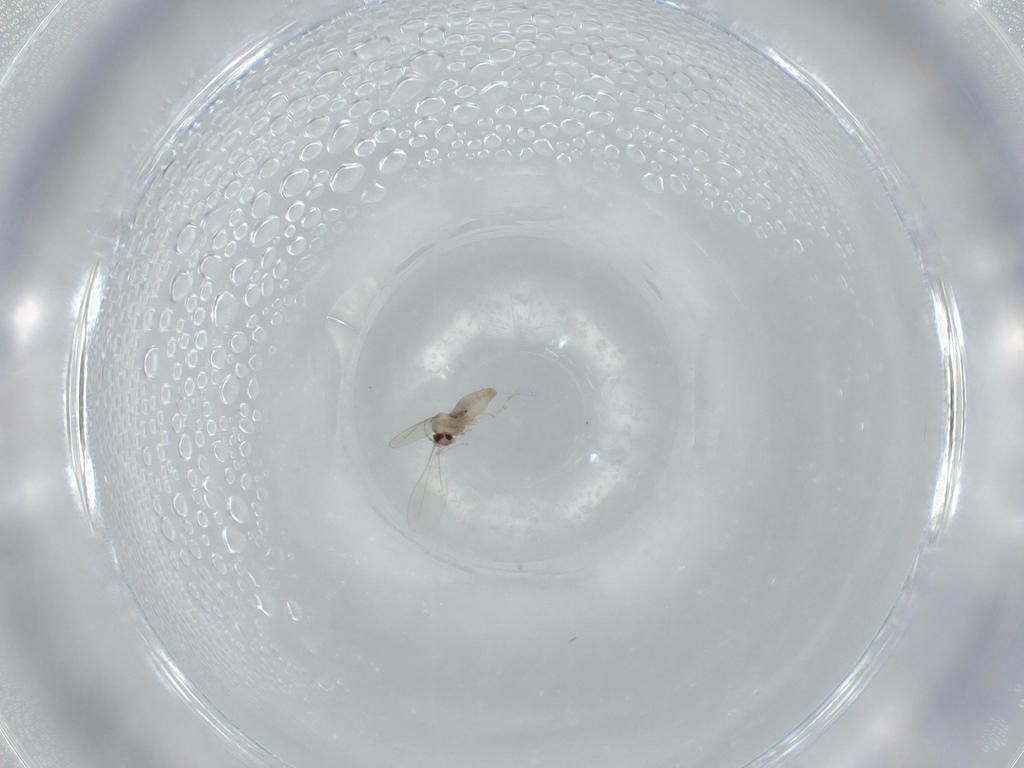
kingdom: Animalia
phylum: Arthropoda
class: Insecta
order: Diptera
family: Cecidomyiidae
